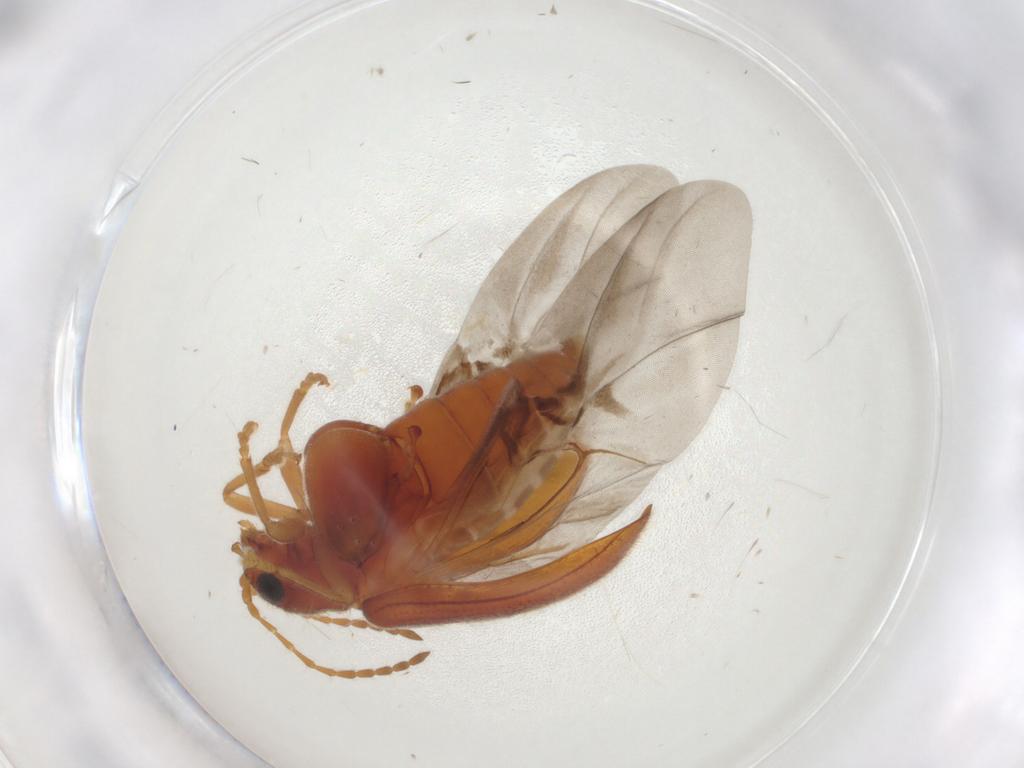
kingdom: Animalia
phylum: Arthropoda
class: Insecta
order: Coleoptera
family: Chrysomelidae
